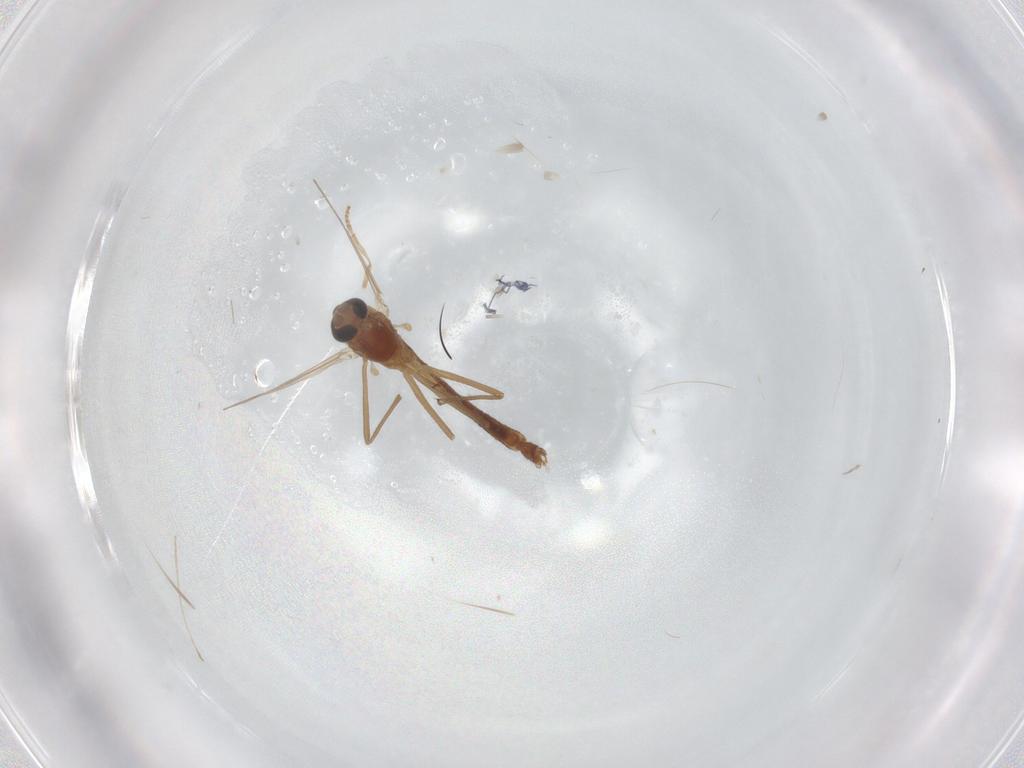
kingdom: Animalia
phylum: Arthropoda
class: Insecta
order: Diptera
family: Chironomidae
